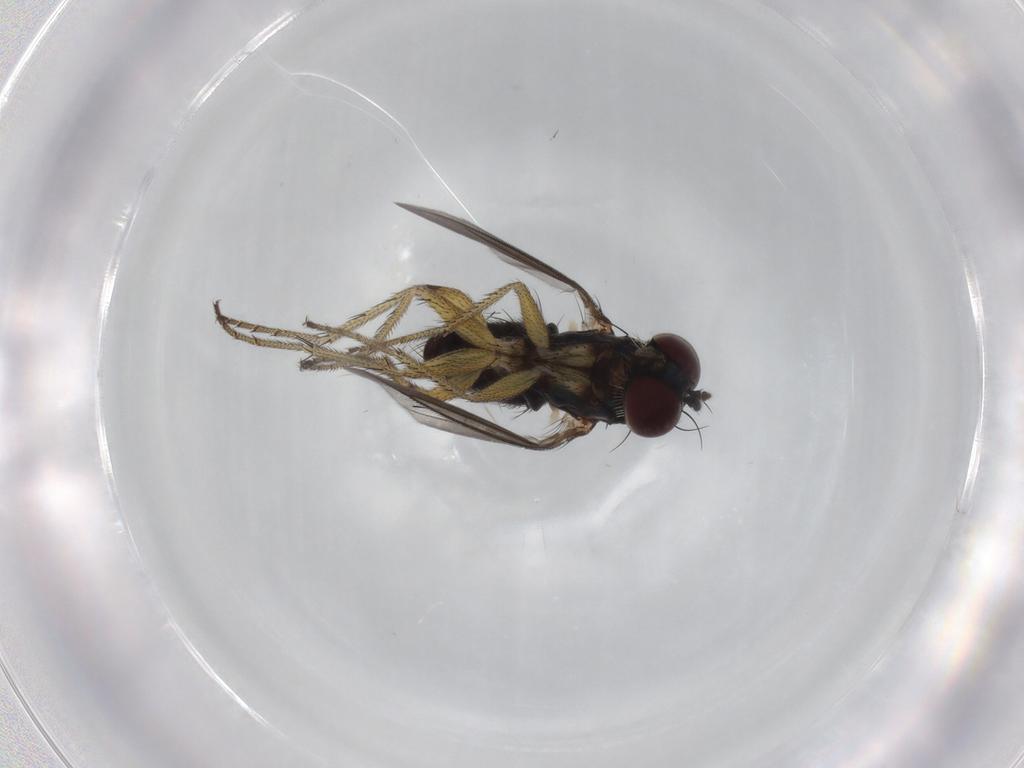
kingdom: Animalia
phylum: Arthropoda
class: Insecta
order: Diptera
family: Dolichopodidae
